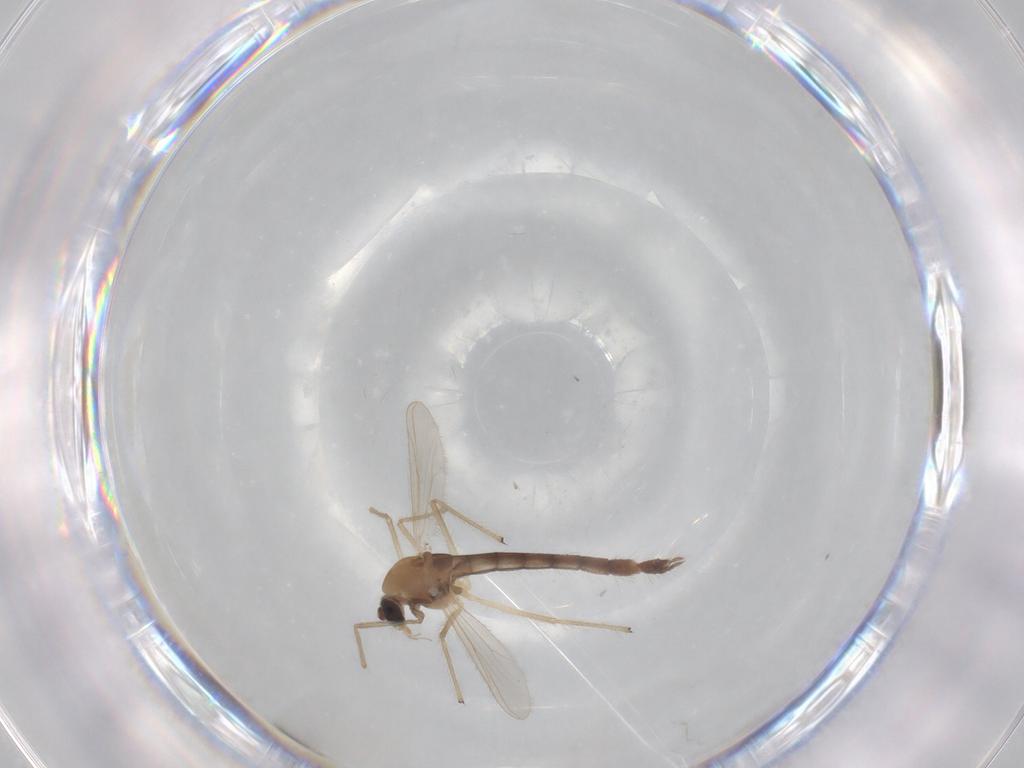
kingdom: Animalia
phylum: Arthropoda
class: Insecta
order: Diptera
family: Chironomidae
